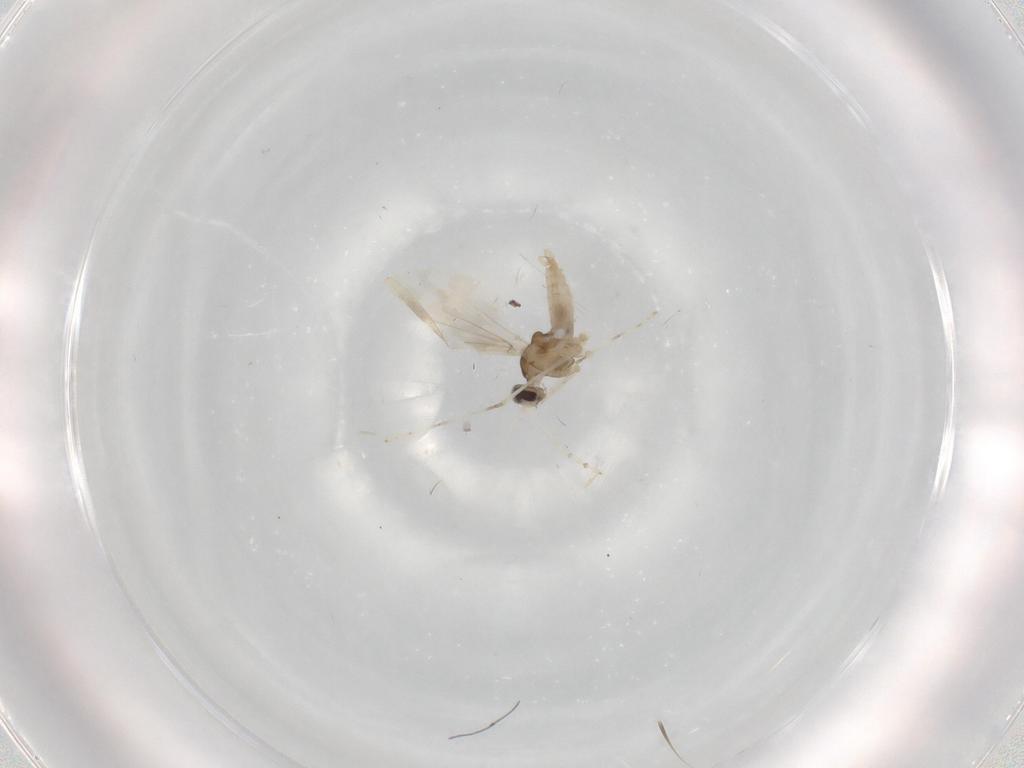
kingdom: Animalia
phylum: Arthropoda
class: Insecta
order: Diptera
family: Cecidomyiidae
